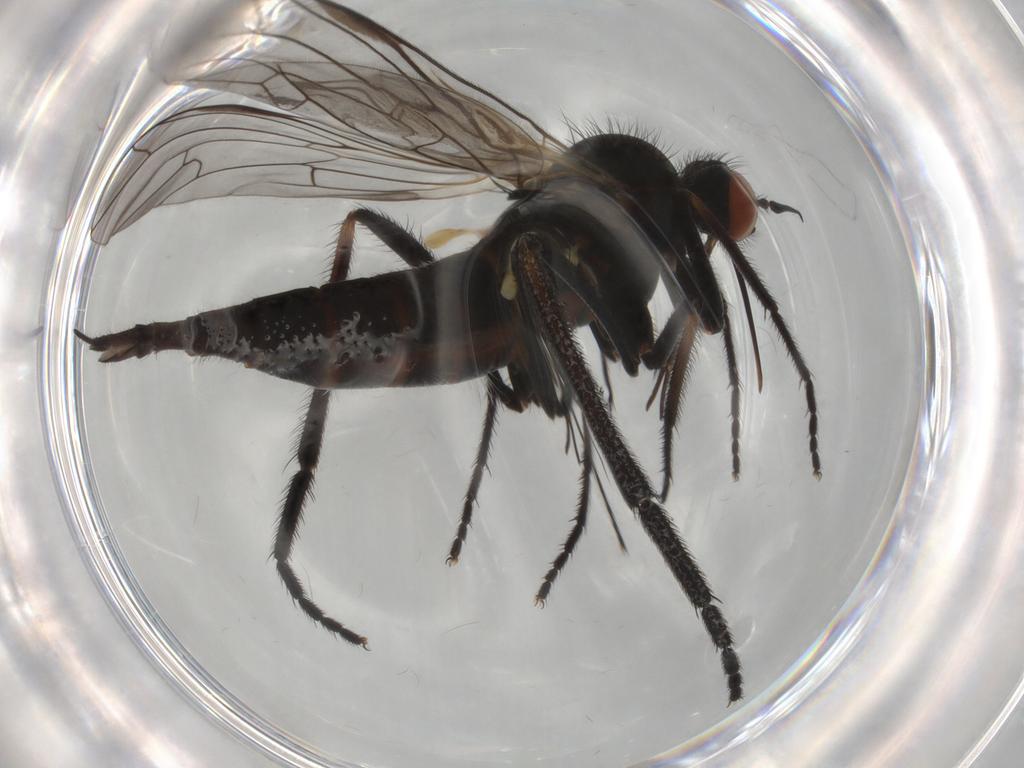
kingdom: Animalia
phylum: Arthropoda
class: Insecta
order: Diptera
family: Empididae
